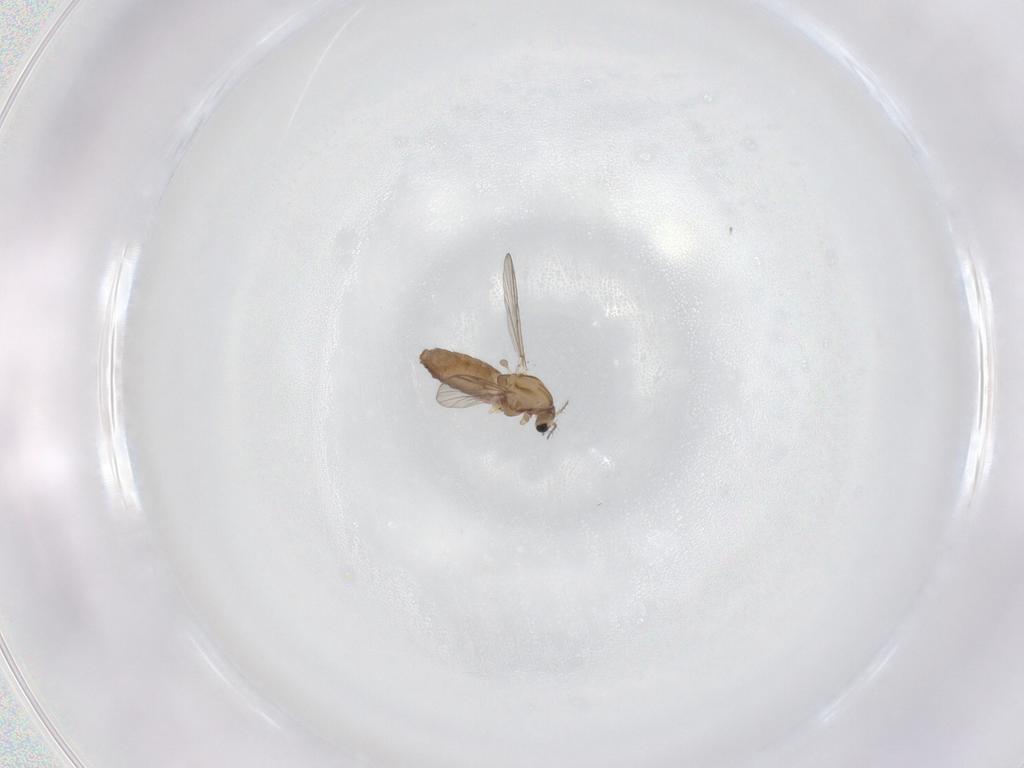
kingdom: Animalia
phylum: Arthropoda
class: Insecta
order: Diptera
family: Chironomidae
